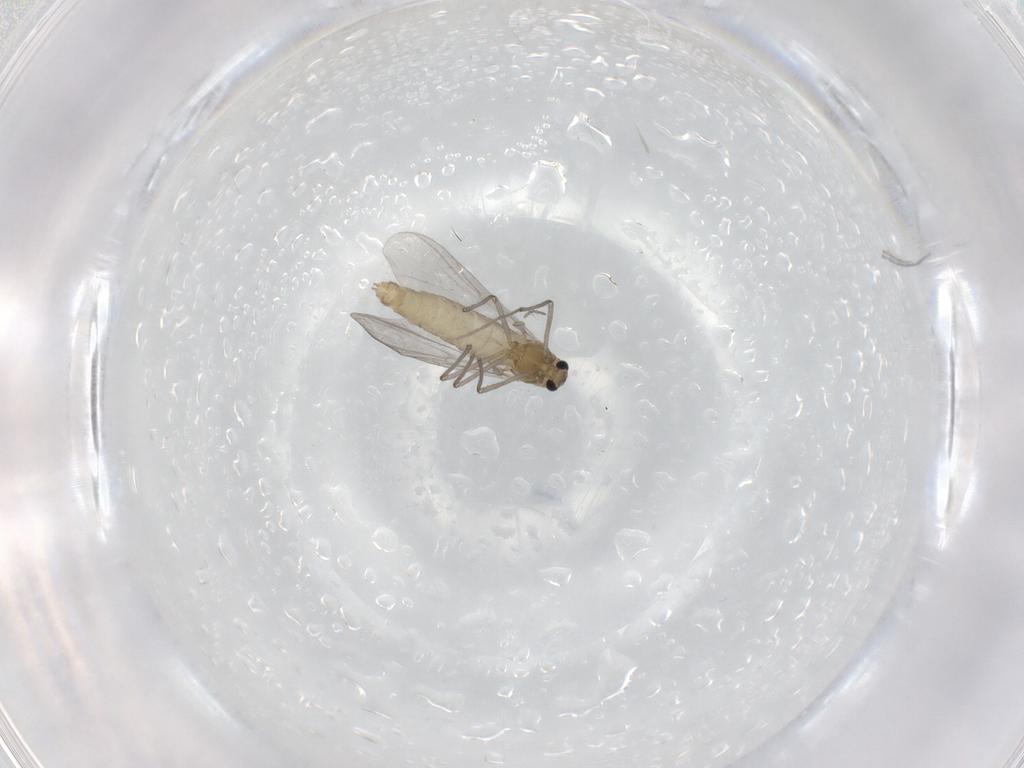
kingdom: Animalia
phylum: Arthropoda
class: Insecta
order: Diptera
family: Chironomidae
